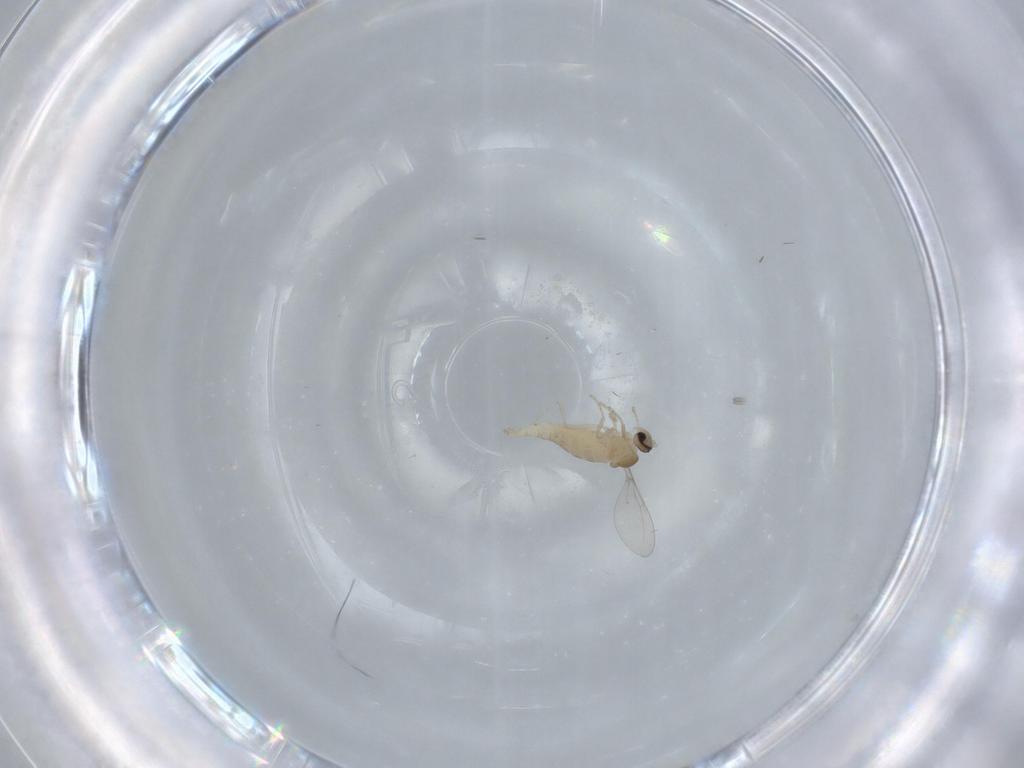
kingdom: Animalia
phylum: Arthropoda
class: Insecta
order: Diptera
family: Cecidomyiidae
